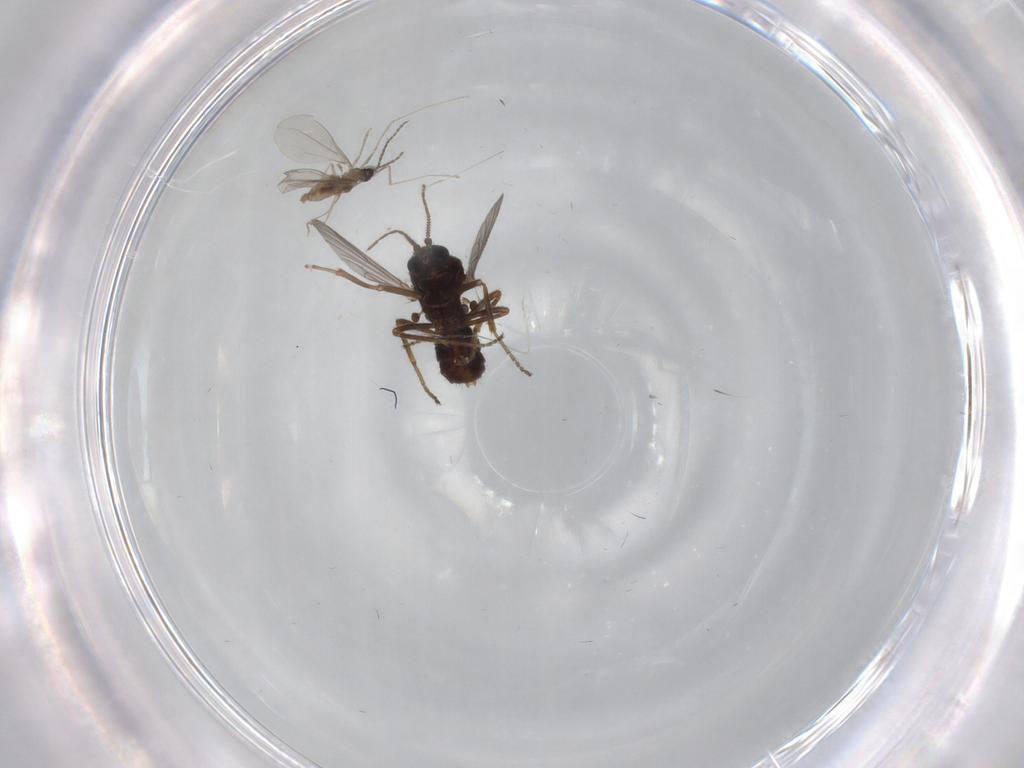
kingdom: Animalia
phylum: Arthropoda
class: Insecta
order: Diptera
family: Ceratopogonidae
